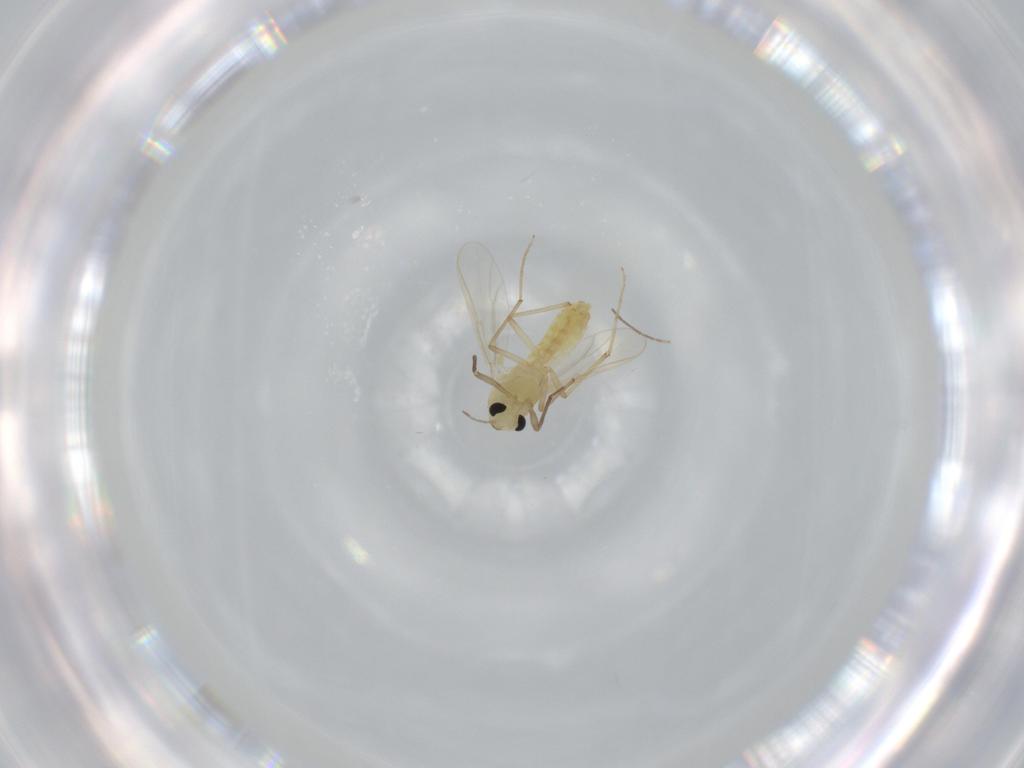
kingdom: Animalia
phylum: Arthropoda
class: Insecta
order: Diptera
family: Chironomidae
